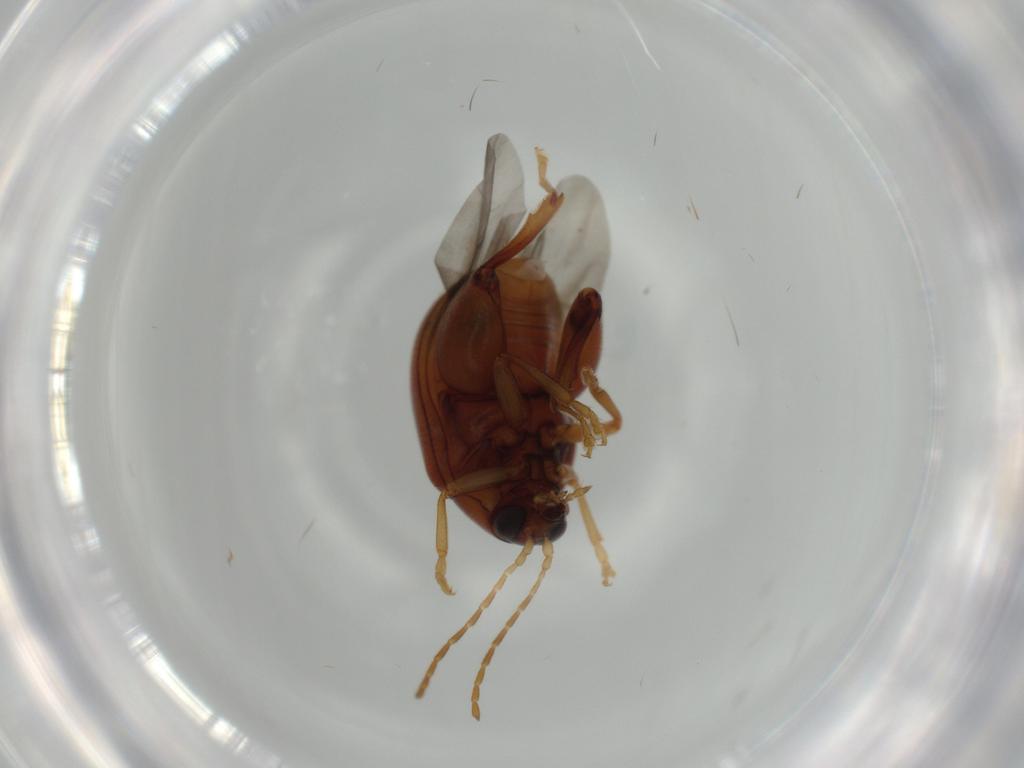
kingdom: Animalia
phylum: Arthropoda
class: Insecta
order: Coleoptera
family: Chrysomelidae
